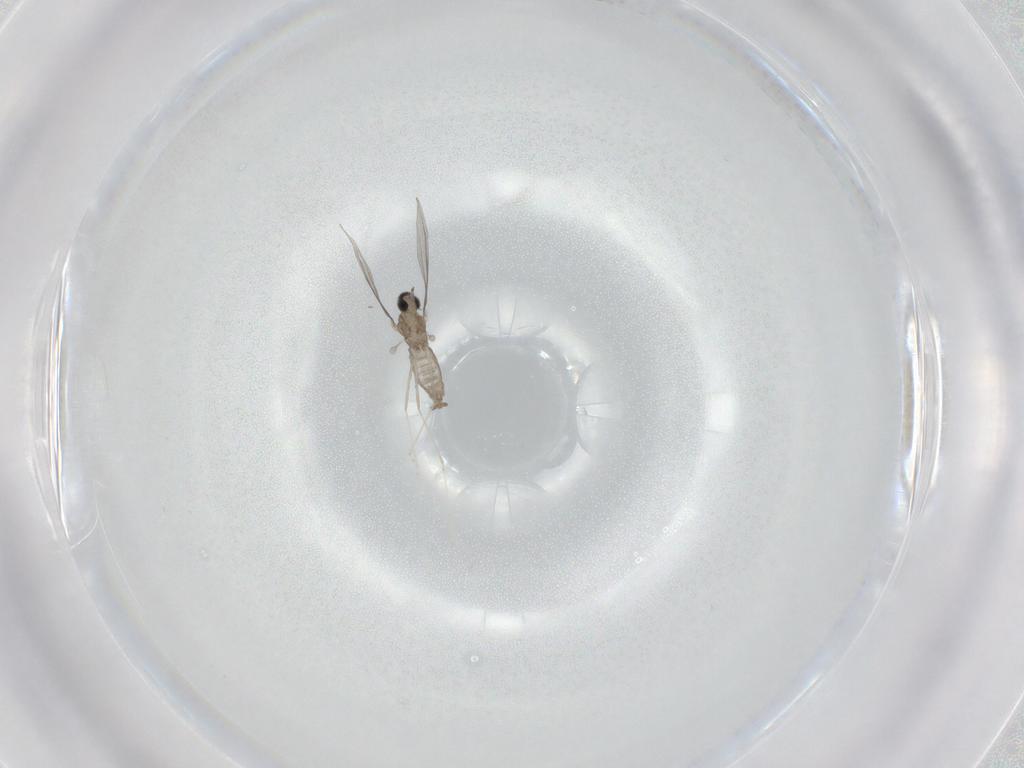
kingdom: Animalia
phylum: Arthropoda
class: Insecta
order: Diptera
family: Cecidomyiidae
